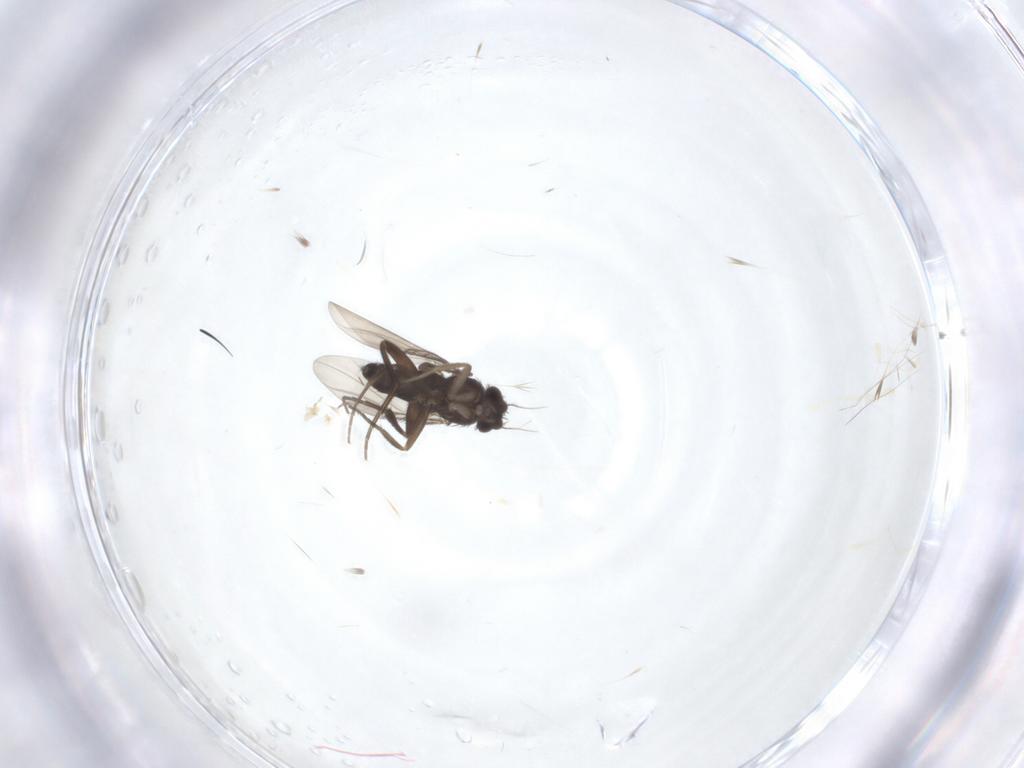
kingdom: Animalia
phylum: Arthropoda
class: Insecta
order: Diptera
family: Phoridae
